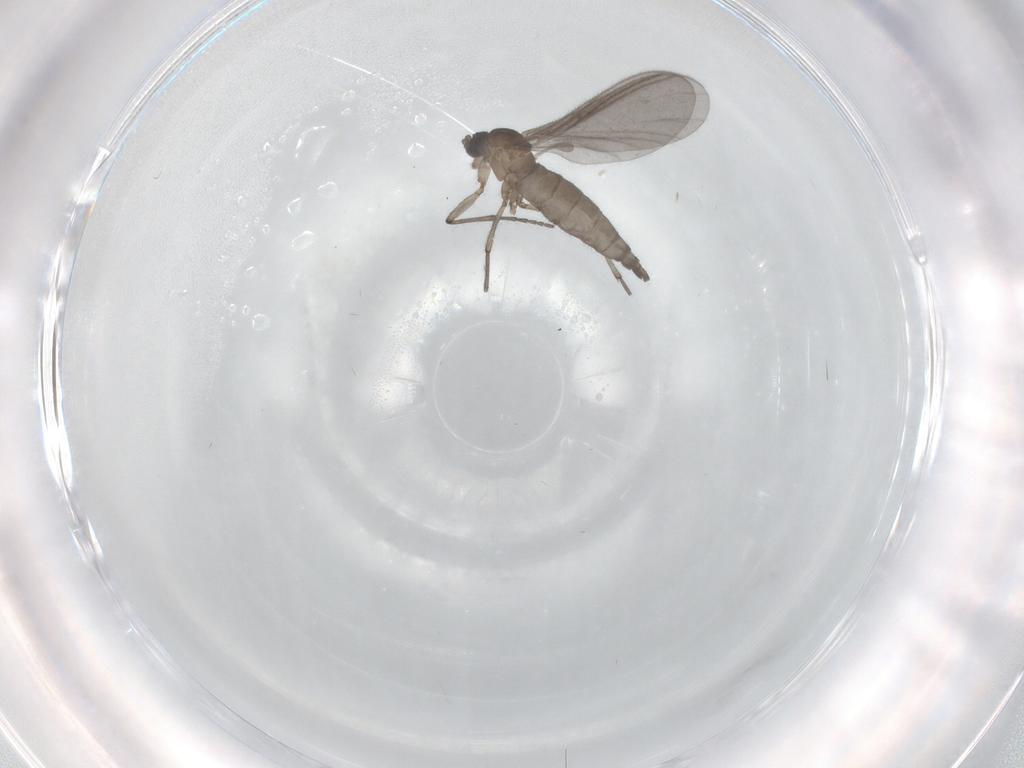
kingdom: Animalia
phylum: Arthropoda
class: Insecta
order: Diptera
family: Sciaridae
